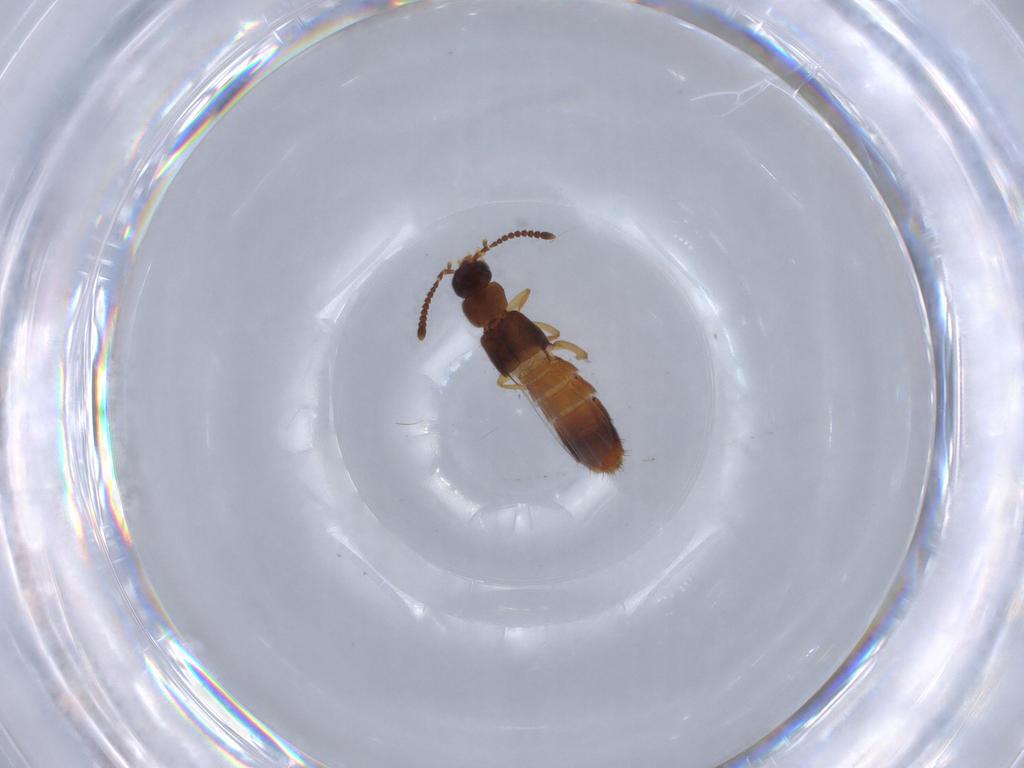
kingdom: Animalia
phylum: Arthropoda
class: Insecta
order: Coleoptera
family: Staphylinidae
